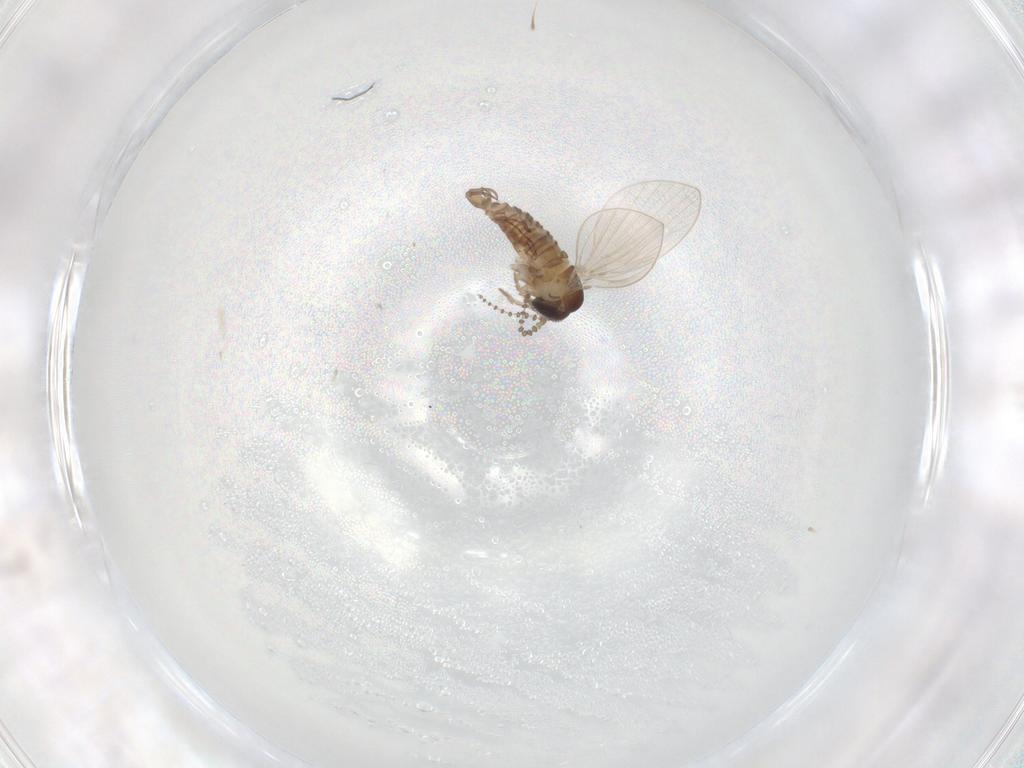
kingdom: Animalia
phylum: Arthropoda
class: Insecta
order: Diptera
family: Psychodidae
